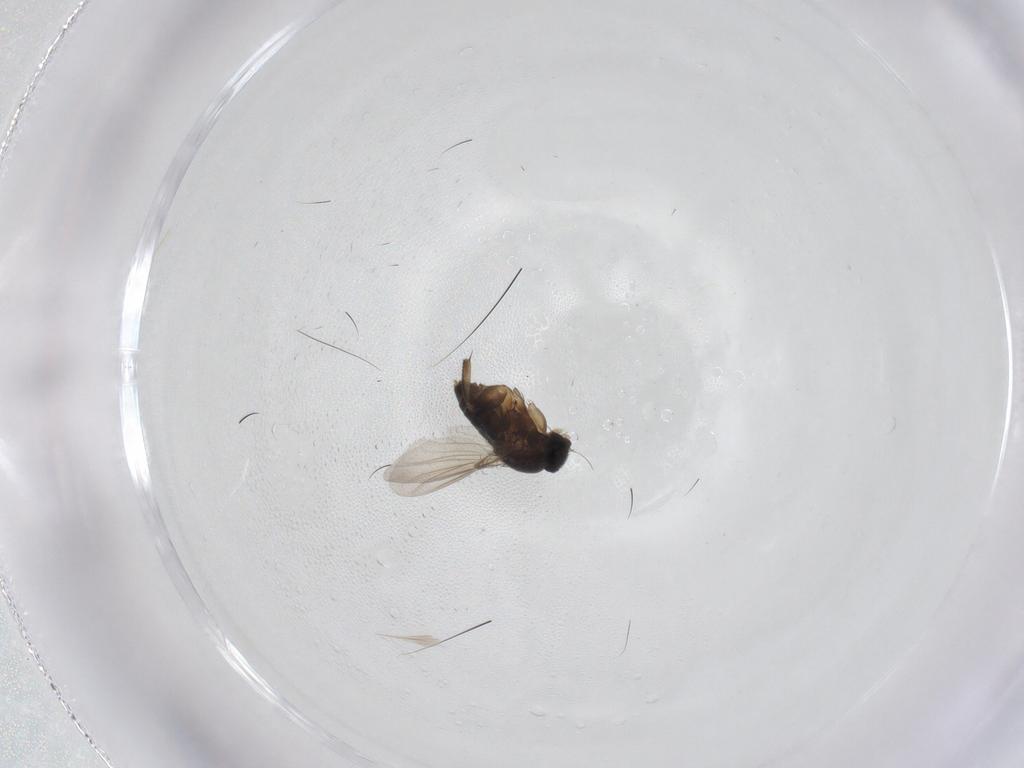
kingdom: Animalia
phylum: Arthropoda
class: Insecta
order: Diptera
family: Phoridae
